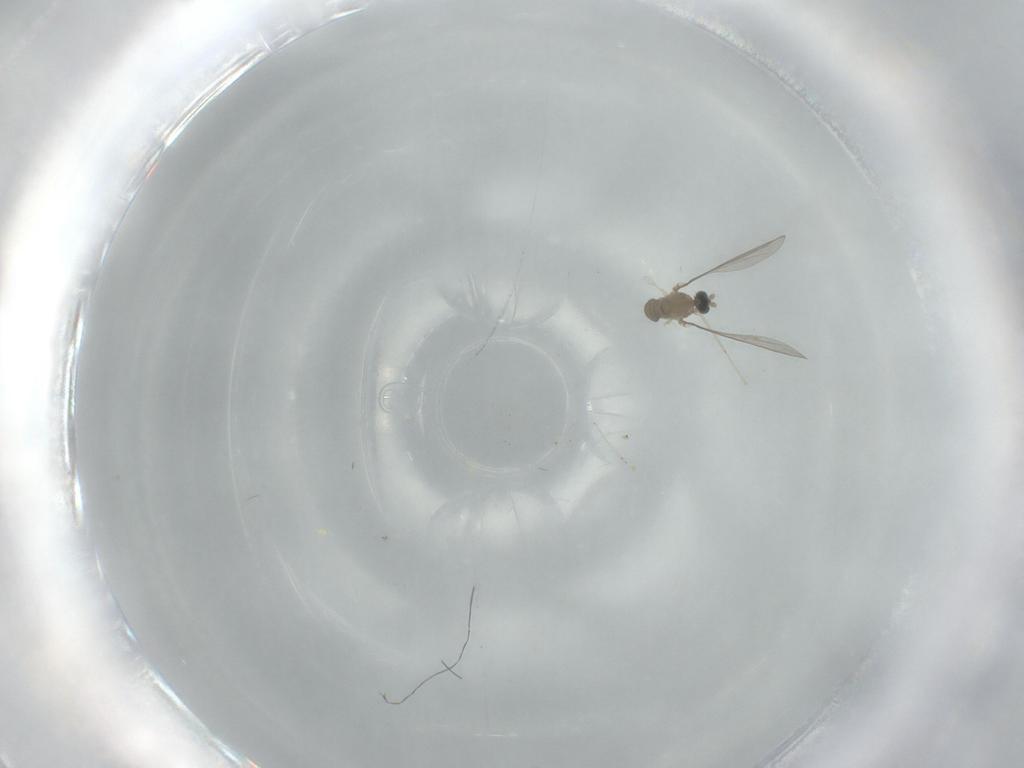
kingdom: Animalia
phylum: Arthropoda
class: Insecta
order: Diptera
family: Cecidomyiidae
